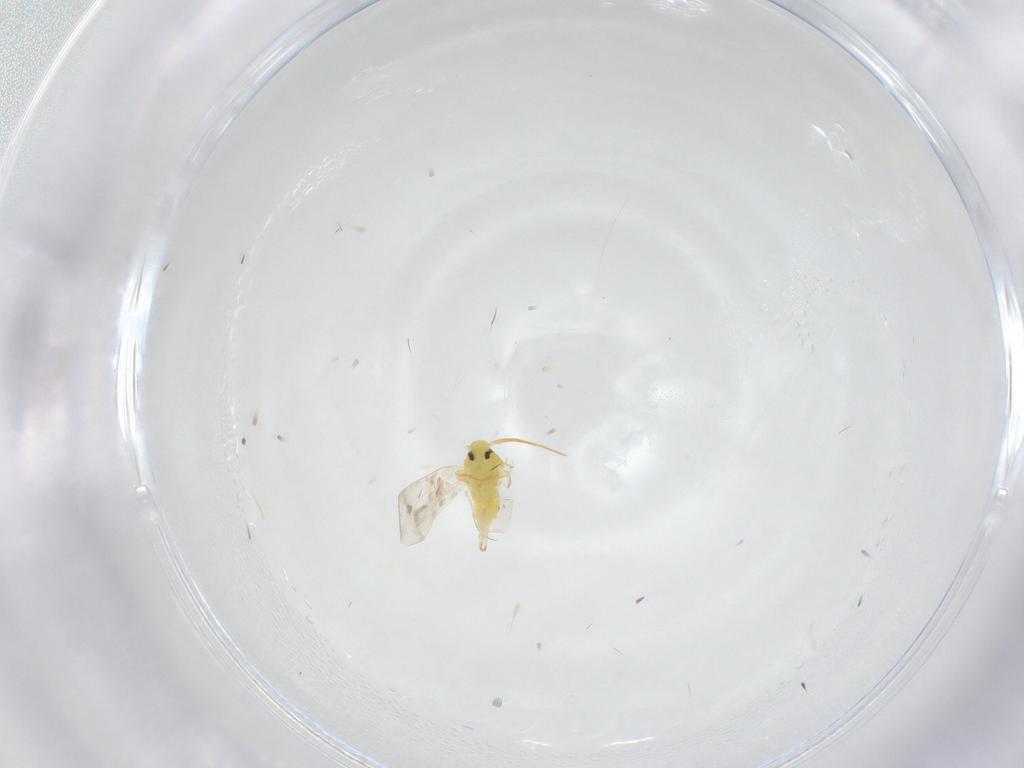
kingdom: Animalia
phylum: Arthropoda
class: Insecta
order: Hemiptera
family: Aleyrodidae
